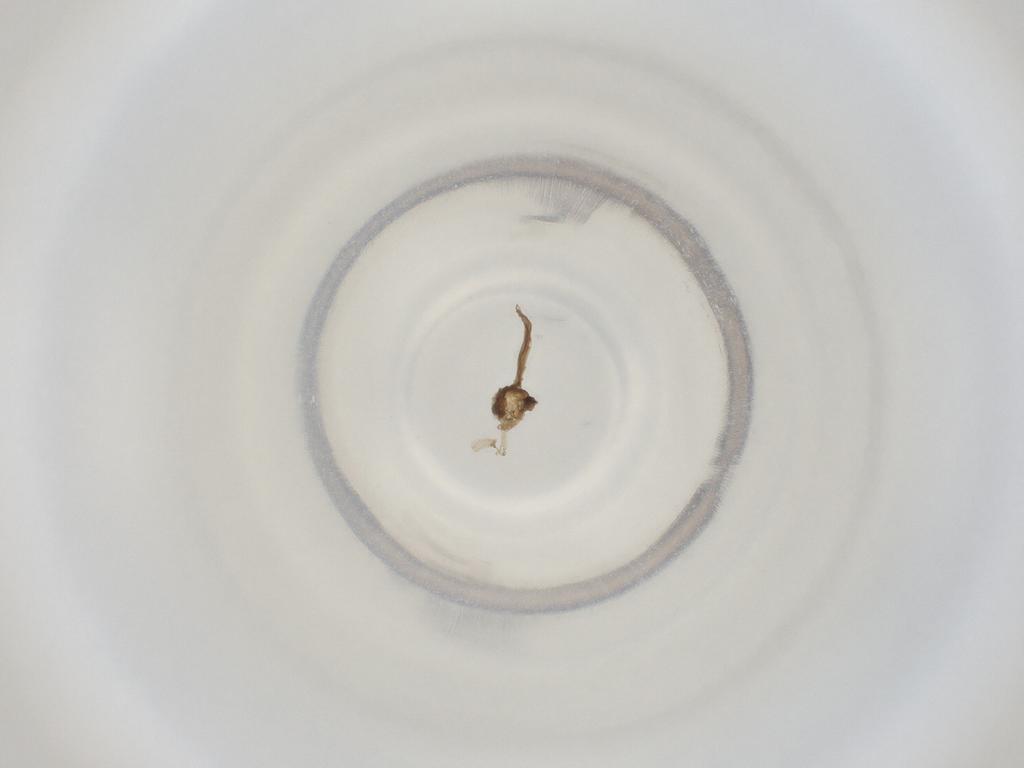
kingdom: Animalia
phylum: Arthropoda
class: Insecta
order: Diptera
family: Cecidomyiidae
